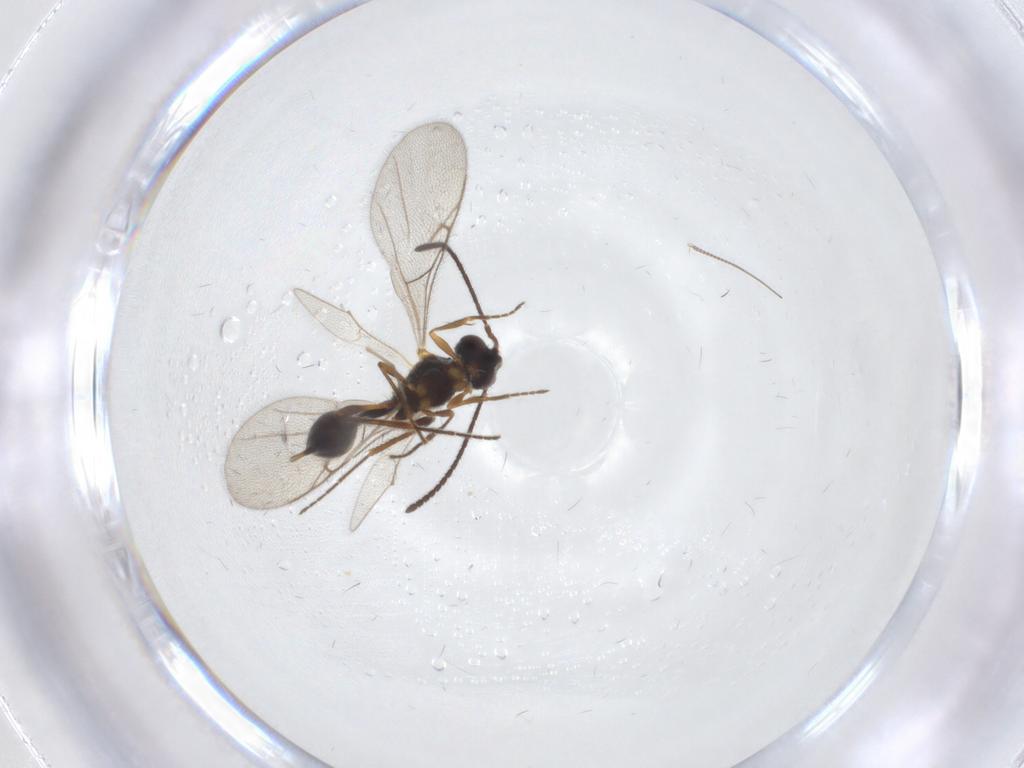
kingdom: Animalia
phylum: Arthropoda
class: Insecta
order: Hymenoptera
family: Diapriidae
